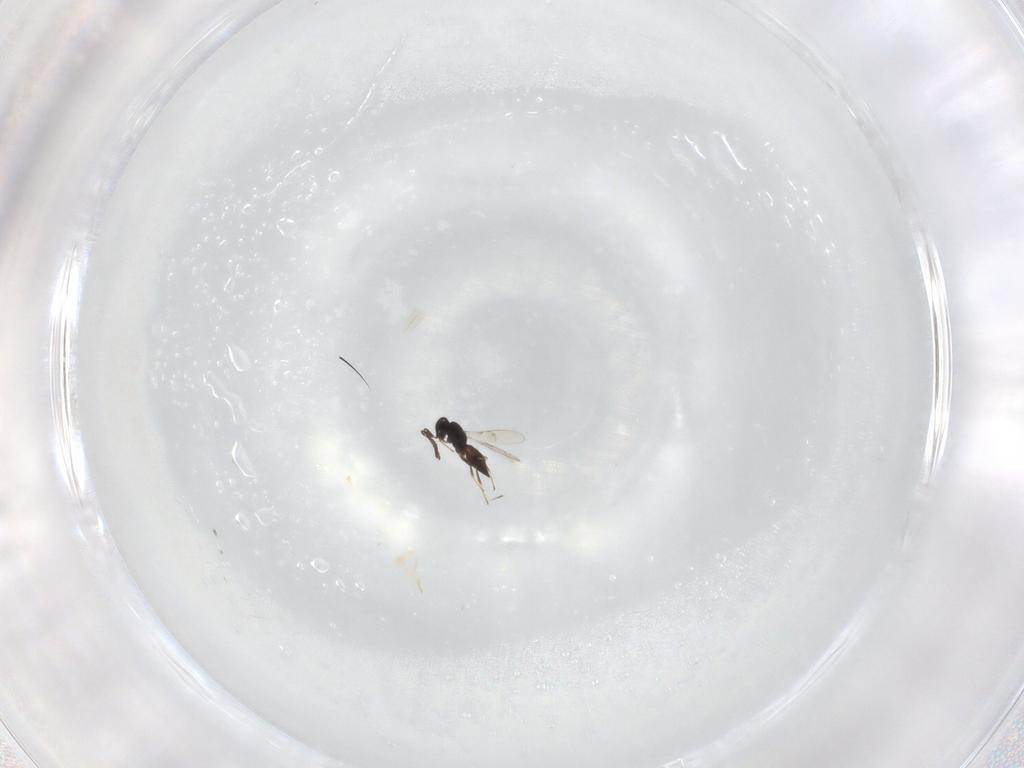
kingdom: Animalia
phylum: Arthropoda
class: Insecta
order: Hymenoptera
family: Scelionidae
